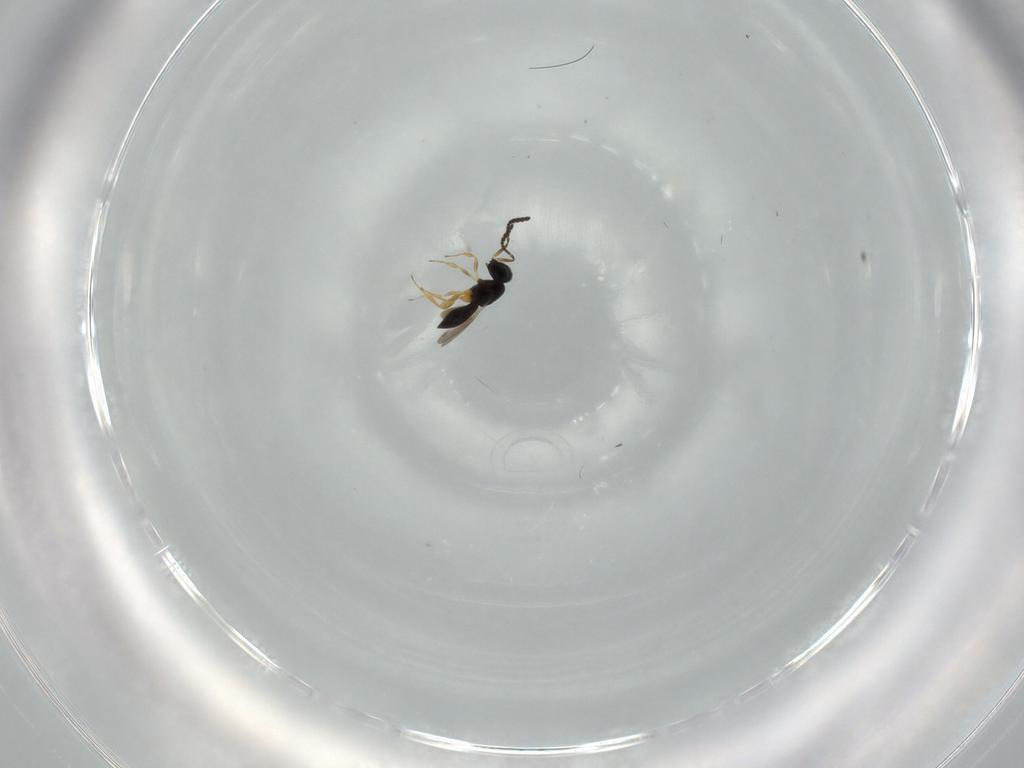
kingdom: Animalia
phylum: Arthropoda
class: Insecta
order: Hymenoptera
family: Scelionidae
